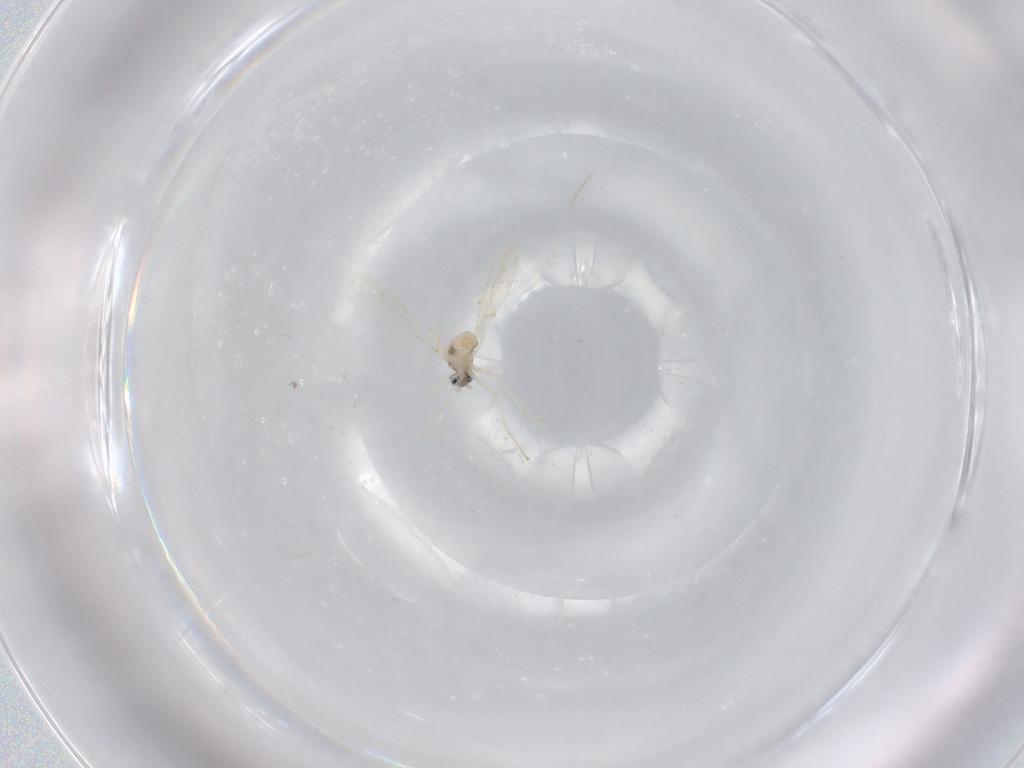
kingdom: Animalia
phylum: Arthropoda
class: Insecta
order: Diptera
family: Cecidomyiidae
